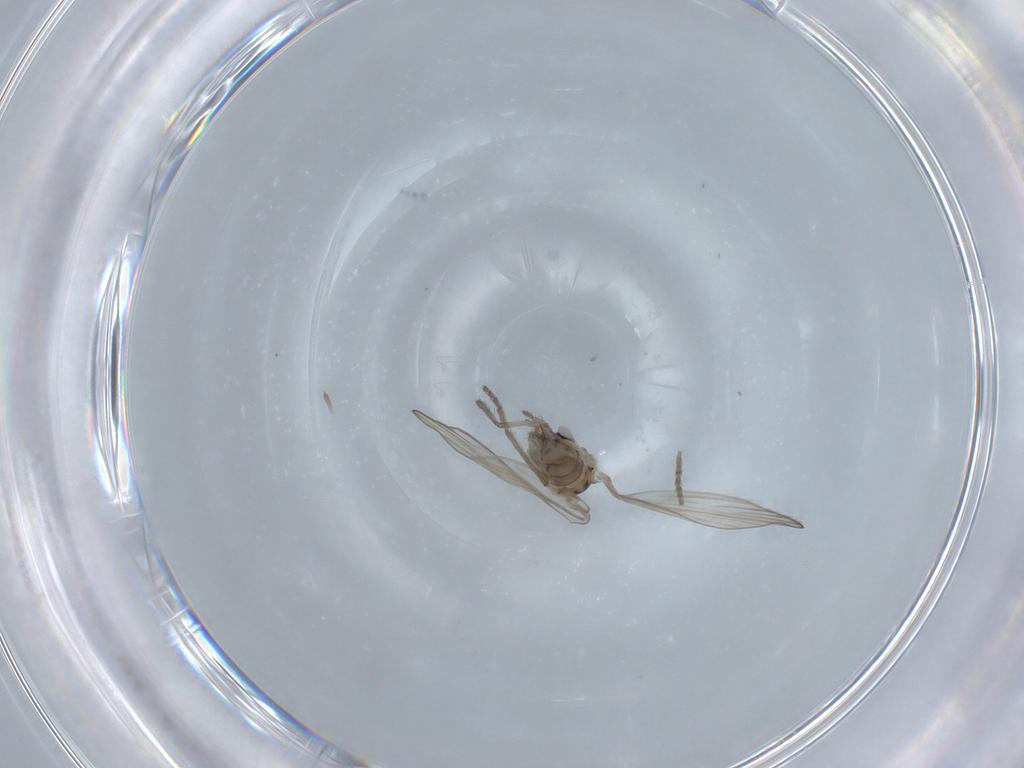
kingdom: Animalia
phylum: Arthropoda
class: Insecta
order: Diptera
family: Psychodidae
